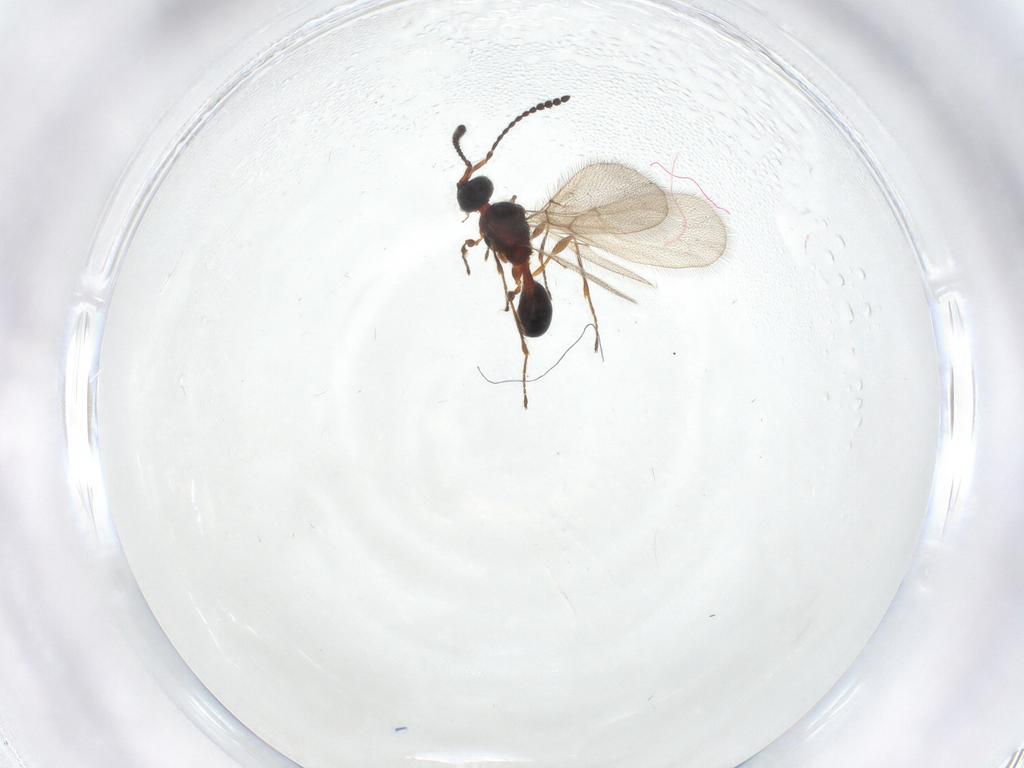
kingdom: Animalia
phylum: Arthropoda
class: Insecta
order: Hymenoptera
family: Diapriidae
